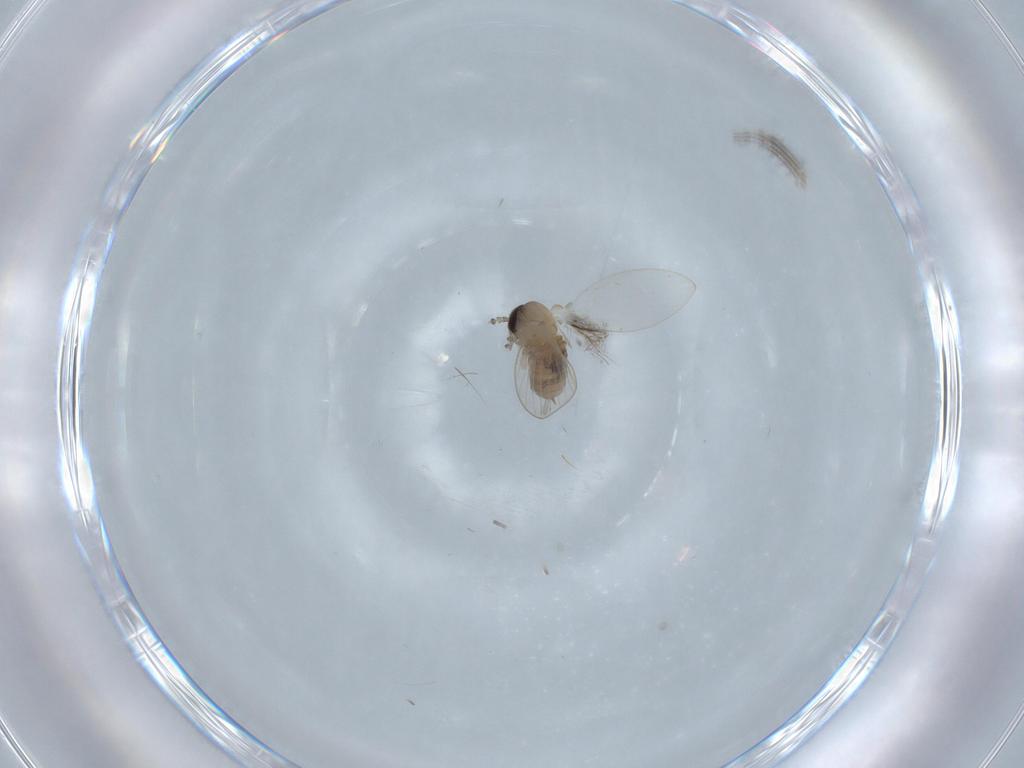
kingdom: Animalia
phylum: Arthropoda
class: Insecta
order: Diptera
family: Psychodidae
